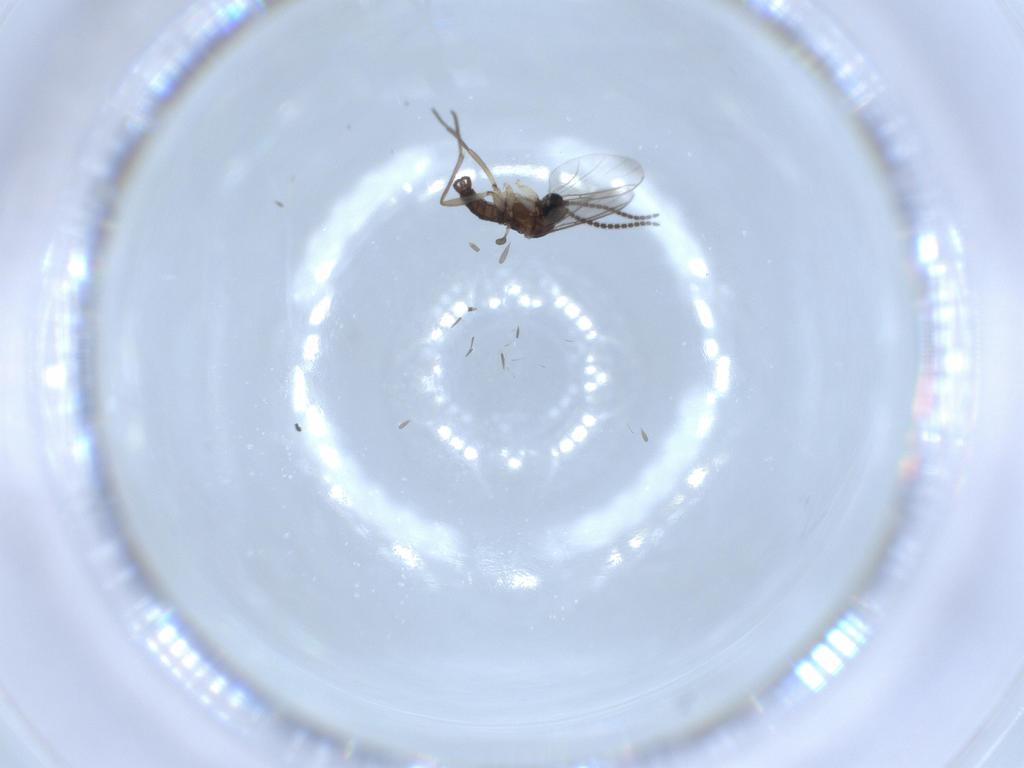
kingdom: Animalia
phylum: Arthropoda
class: Insecta
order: Diptera
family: Sciaridae
